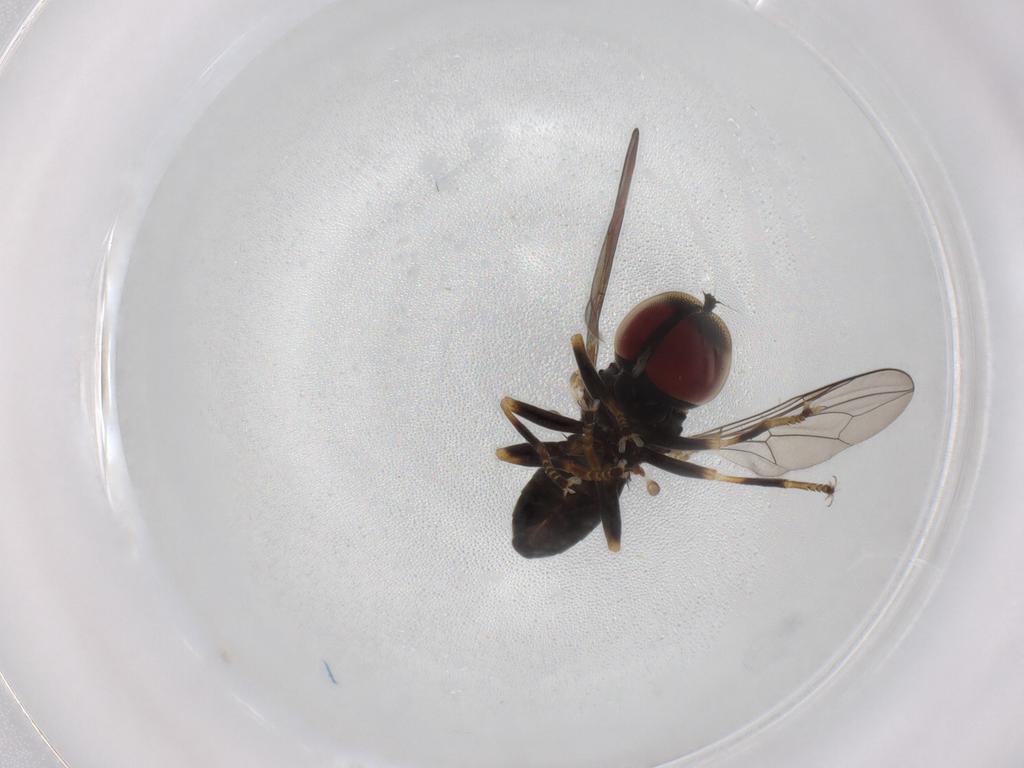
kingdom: Animalia
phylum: Arthropoda
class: Insecta
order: Diptera
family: Pipunculidae
